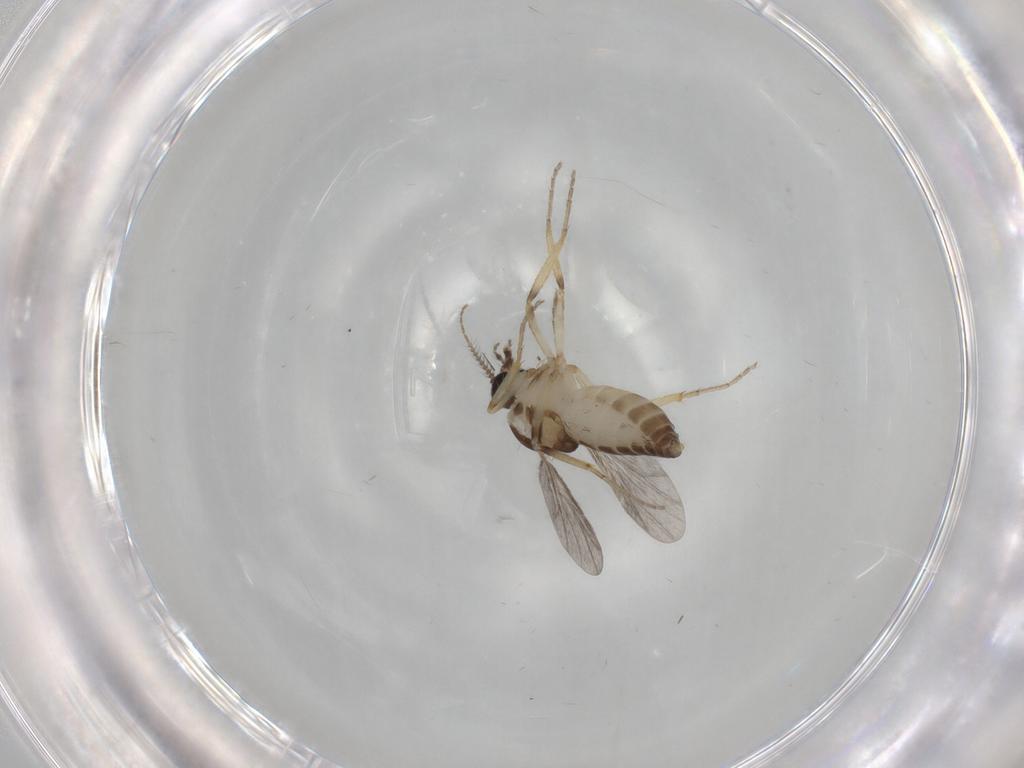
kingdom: Animalia
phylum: Arthropoda
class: Insecta
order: Diptera
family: Ceratopogonidae
